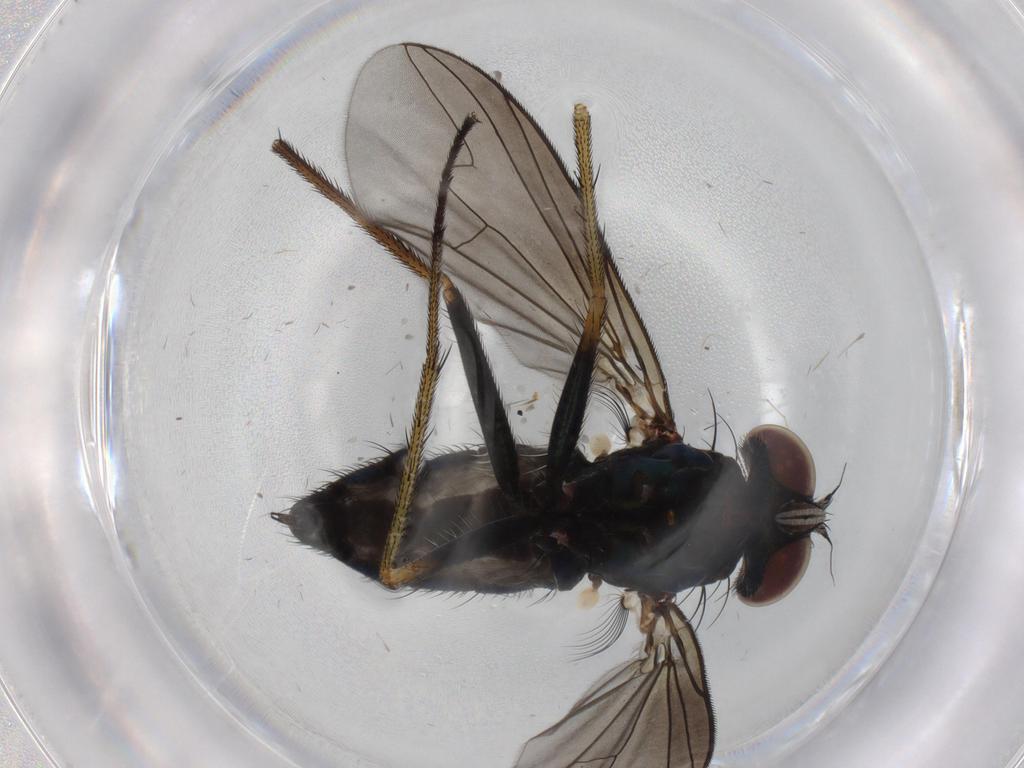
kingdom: Animalia
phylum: Arthropoda
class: Insecta
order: Diptera
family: Dolichopodidae
